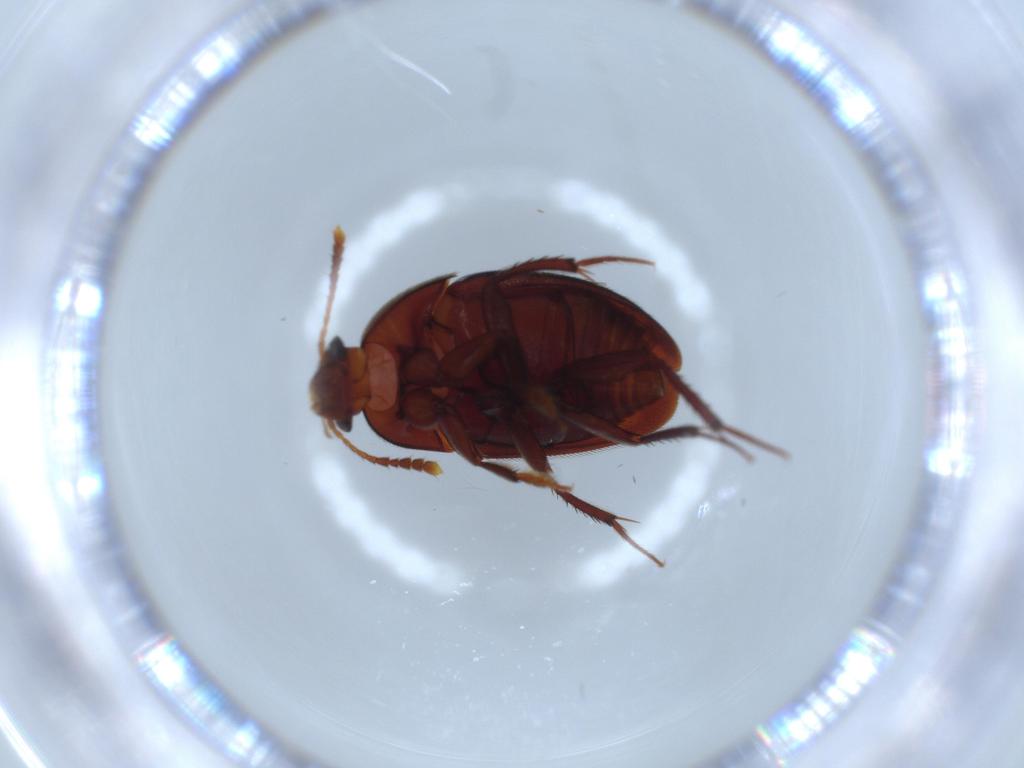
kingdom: Animalia
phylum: Arthropoda
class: Insecta
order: Coleoptera
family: Leiodidae
